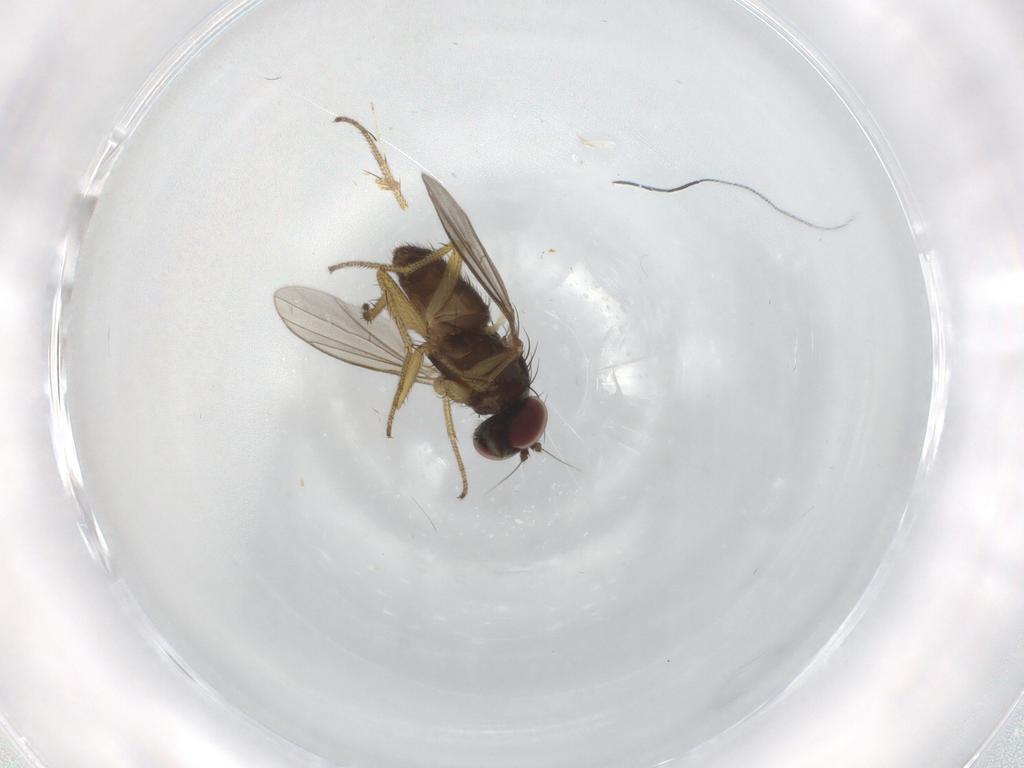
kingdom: Animalia
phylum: Arthropoda
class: Insecta
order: Diptera
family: Dolichopodidae
